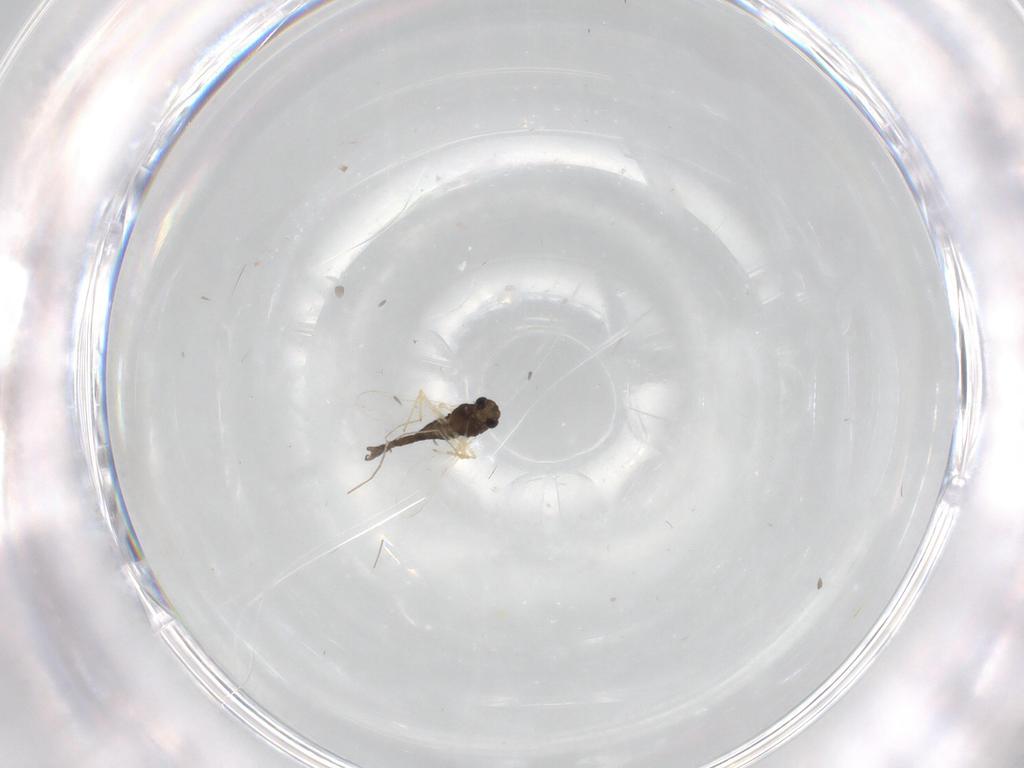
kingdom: Animalia
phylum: Arthropoda
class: Insecta
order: Diptera
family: Chironomidae
